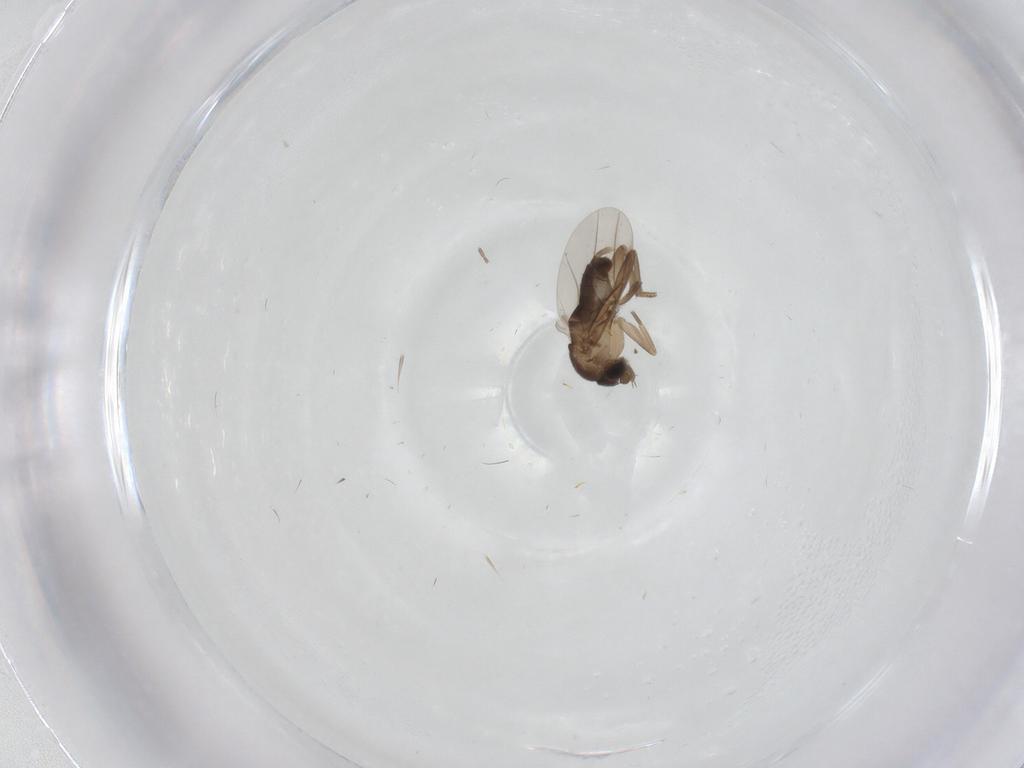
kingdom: Animalia
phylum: Arthropoda
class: Insecta
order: Diptera
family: Phoridae
